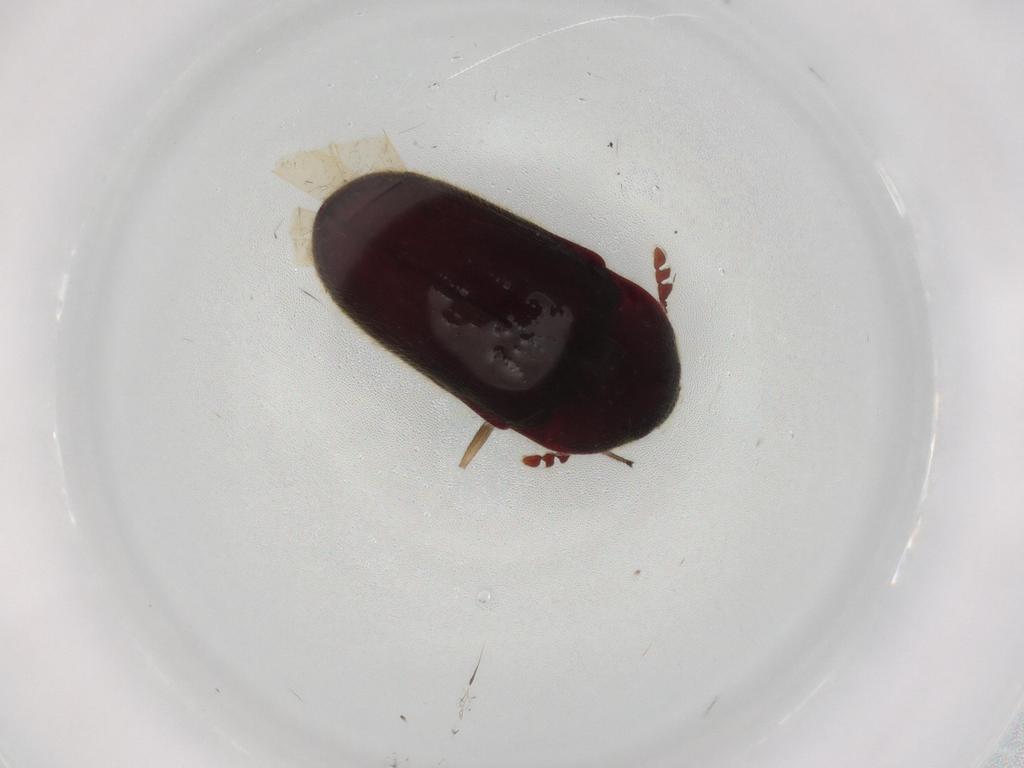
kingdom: Animalia
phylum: Arthropoda
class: Insecta
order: Coleoptera
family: Throscidae
